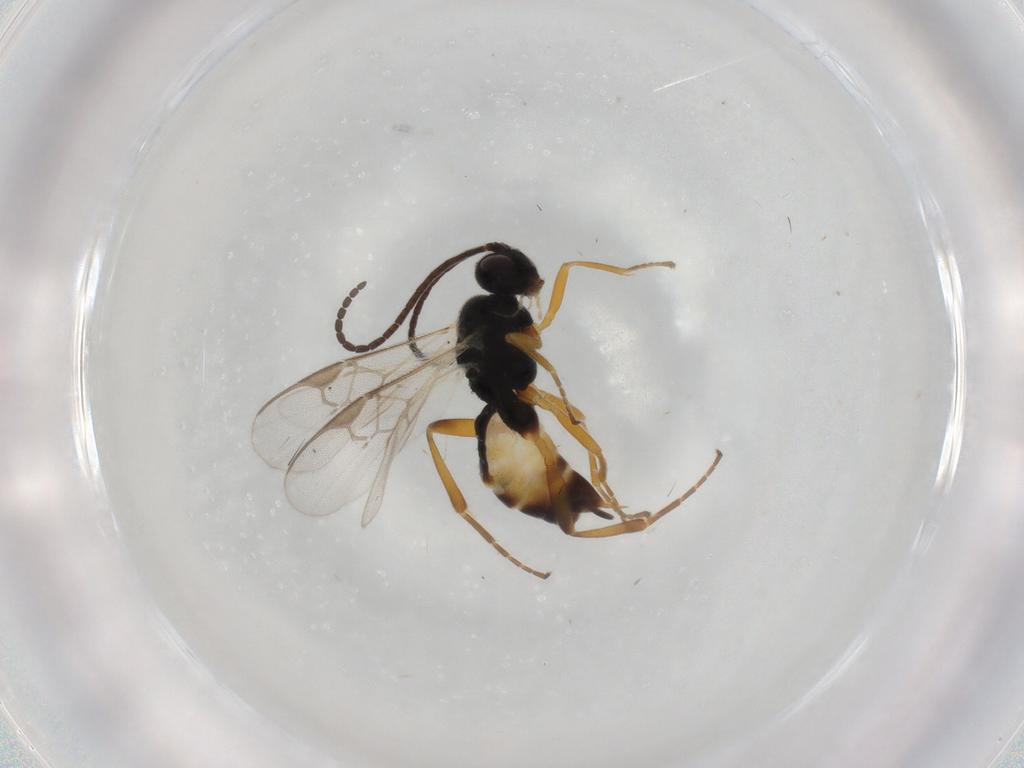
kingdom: Animalia
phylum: Arthropoda
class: Insecta
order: Hymenoptera
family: Braconidae
